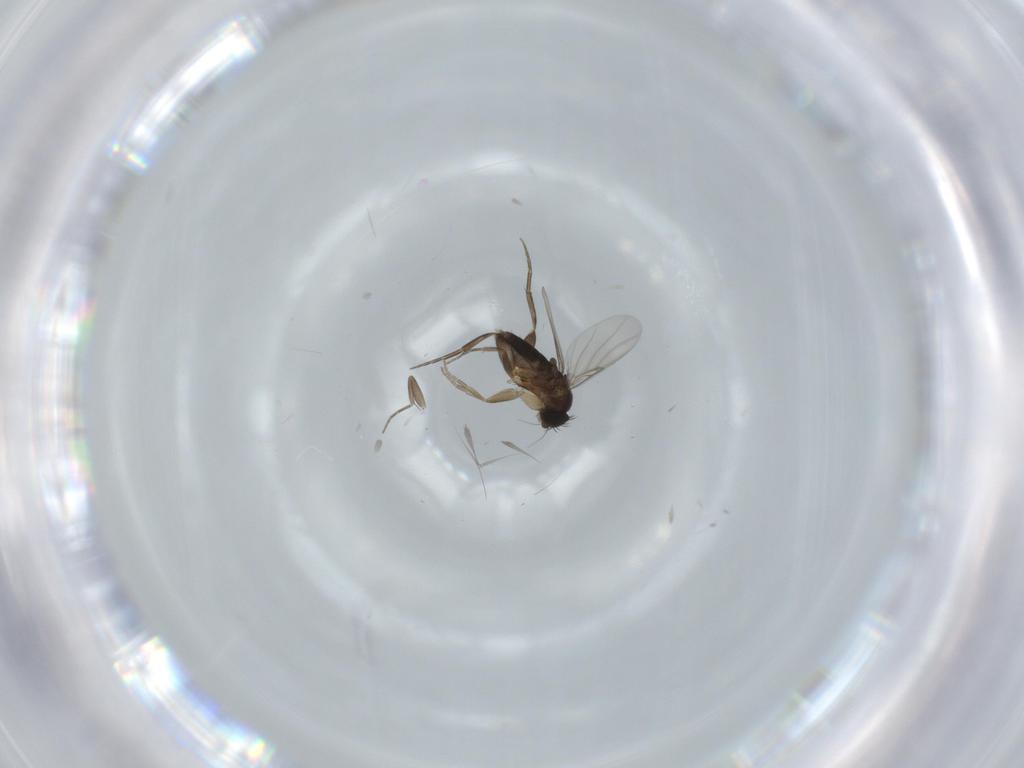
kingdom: Animalia
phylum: Arthropoda
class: Insecta
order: Diptera
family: Phoridae
